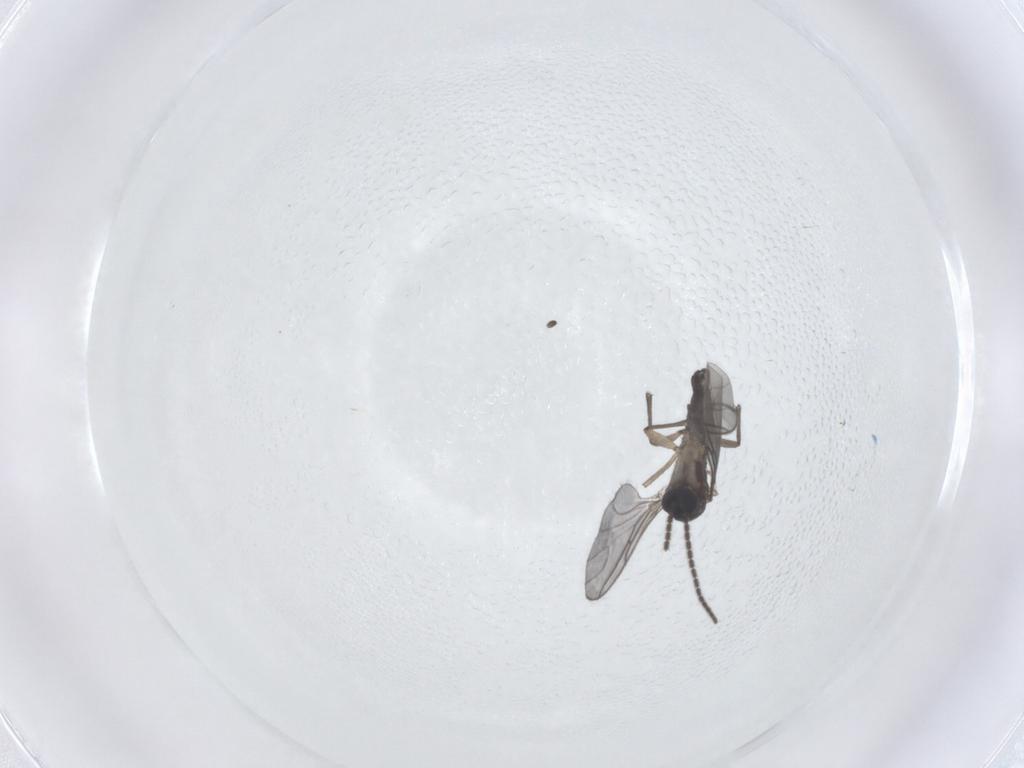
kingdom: Animalia
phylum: Arthropoda
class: Insecta
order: Diptera
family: Sciaridae
